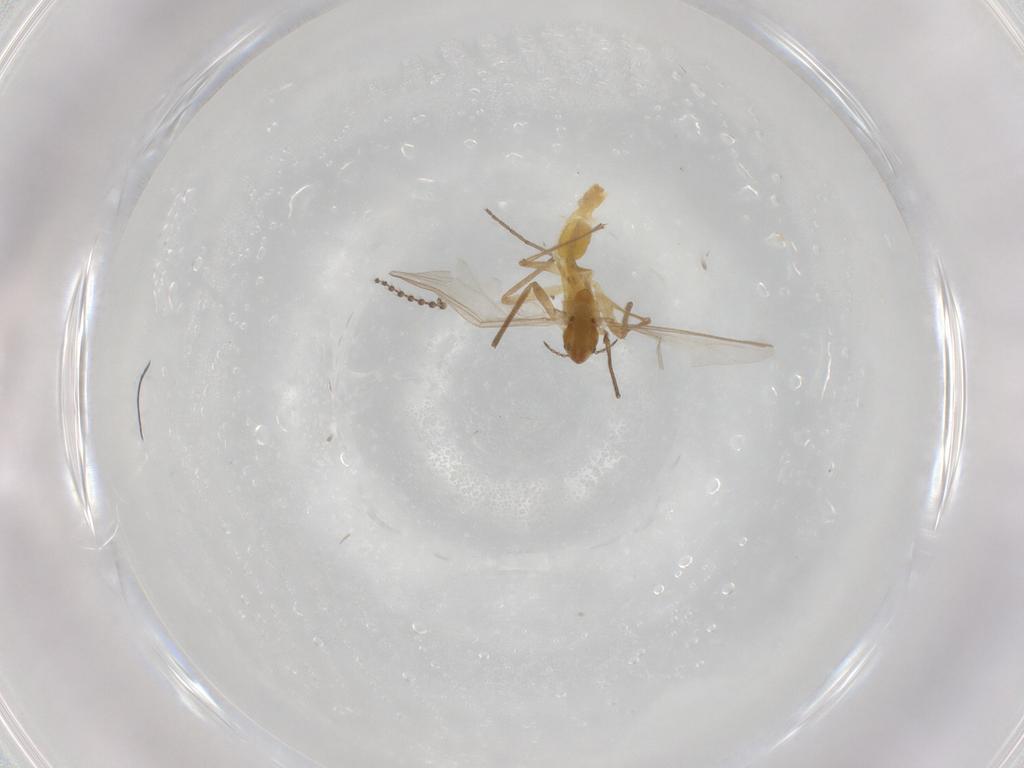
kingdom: Animalia
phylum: Arthropoda
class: Insecta
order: Diptera
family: Chironomidae
